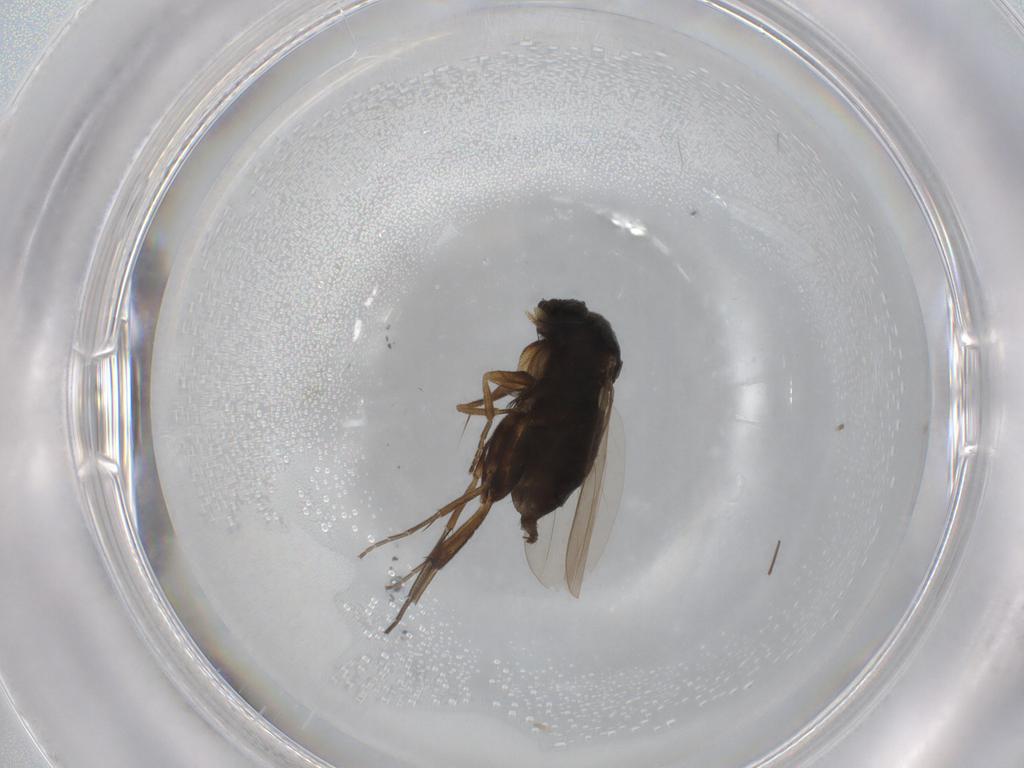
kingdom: Animalia
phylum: Arthropoda
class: Insecta
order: Diptera
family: Phoridae
